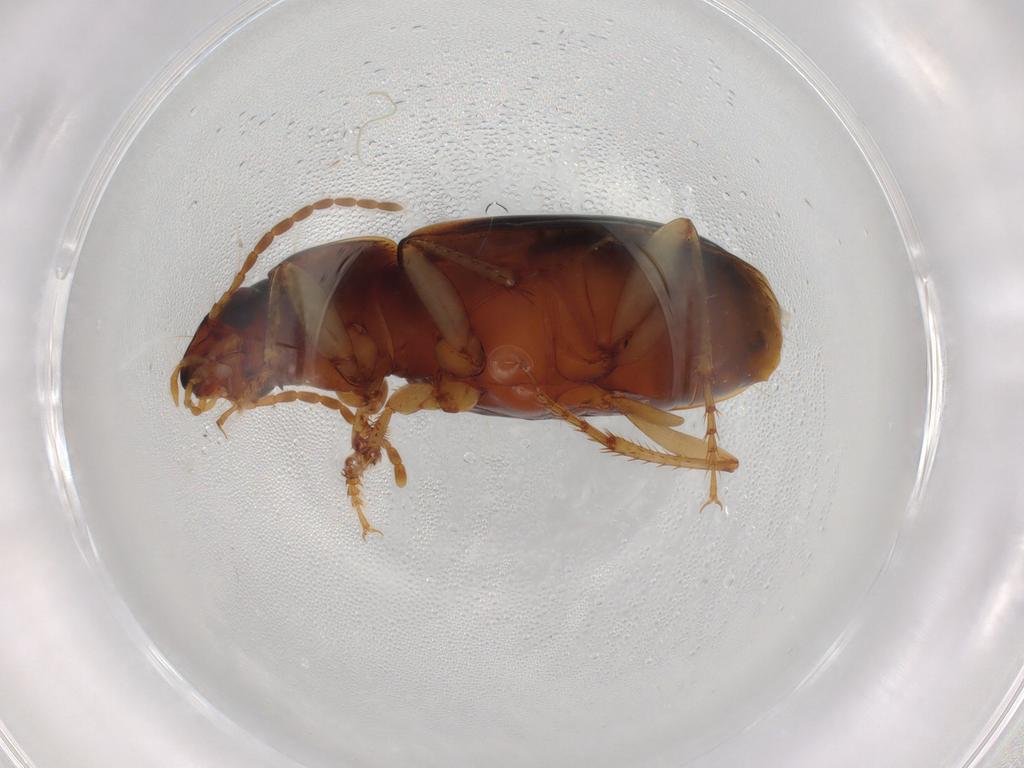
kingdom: Animalia
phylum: Arthropoda
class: Insecta
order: Coleoptera
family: Carabidae
